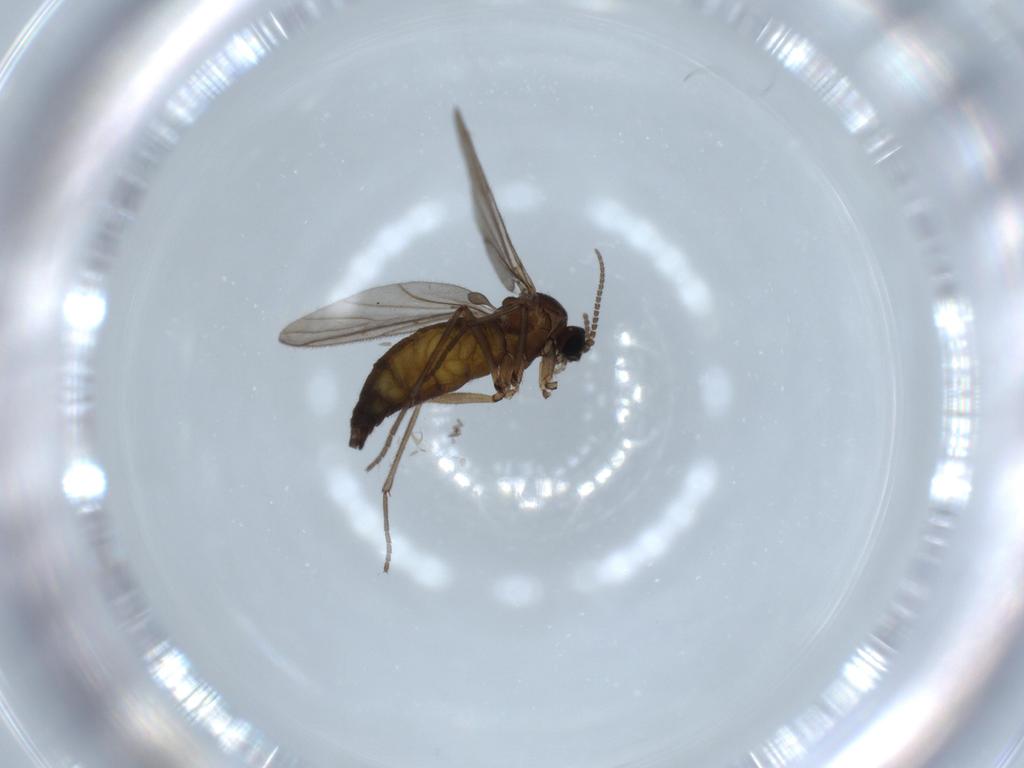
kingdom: Animalia
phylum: Arthropoda
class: Insecta
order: Diptera
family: Sciaridae
